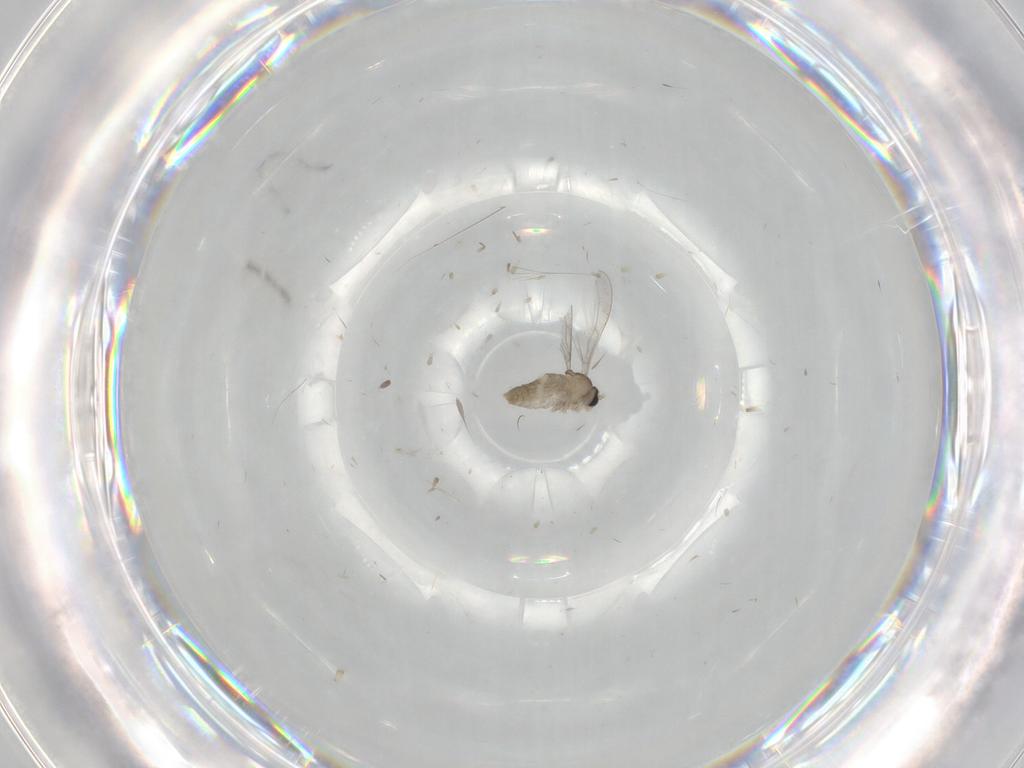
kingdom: Animalia
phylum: Arthropoda
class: Insecta
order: Diptera
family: Cecidomyiidae
